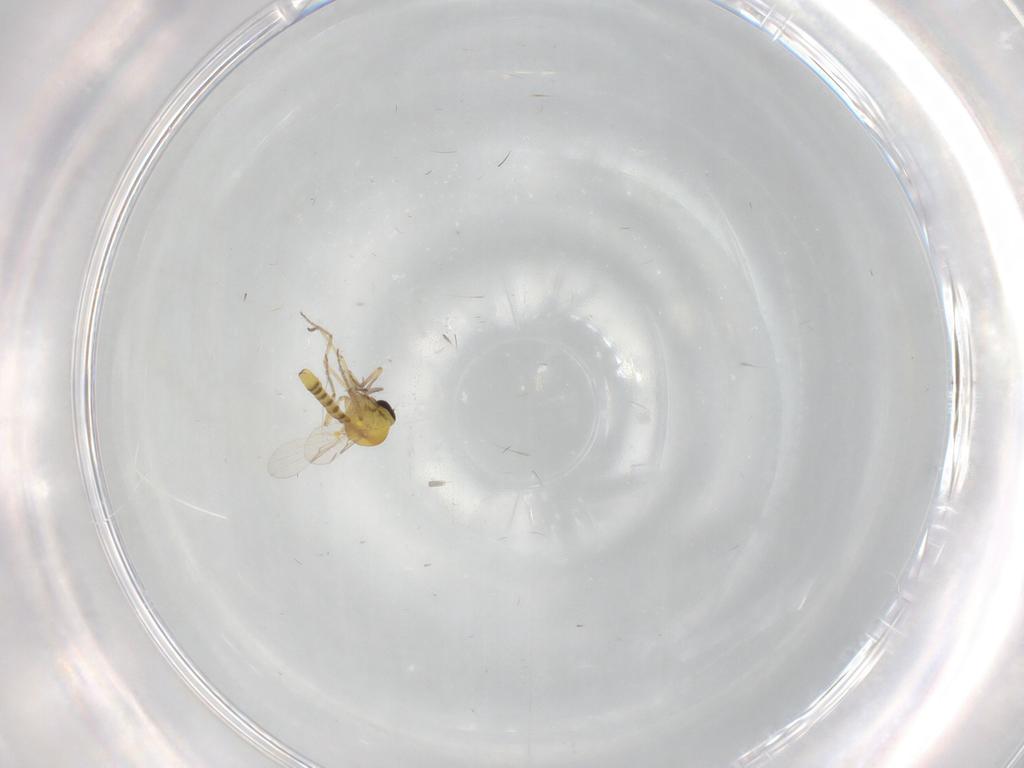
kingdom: Animalia
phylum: Arthropoda
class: Insecta
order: Diptera
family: Ceratopogonidae
